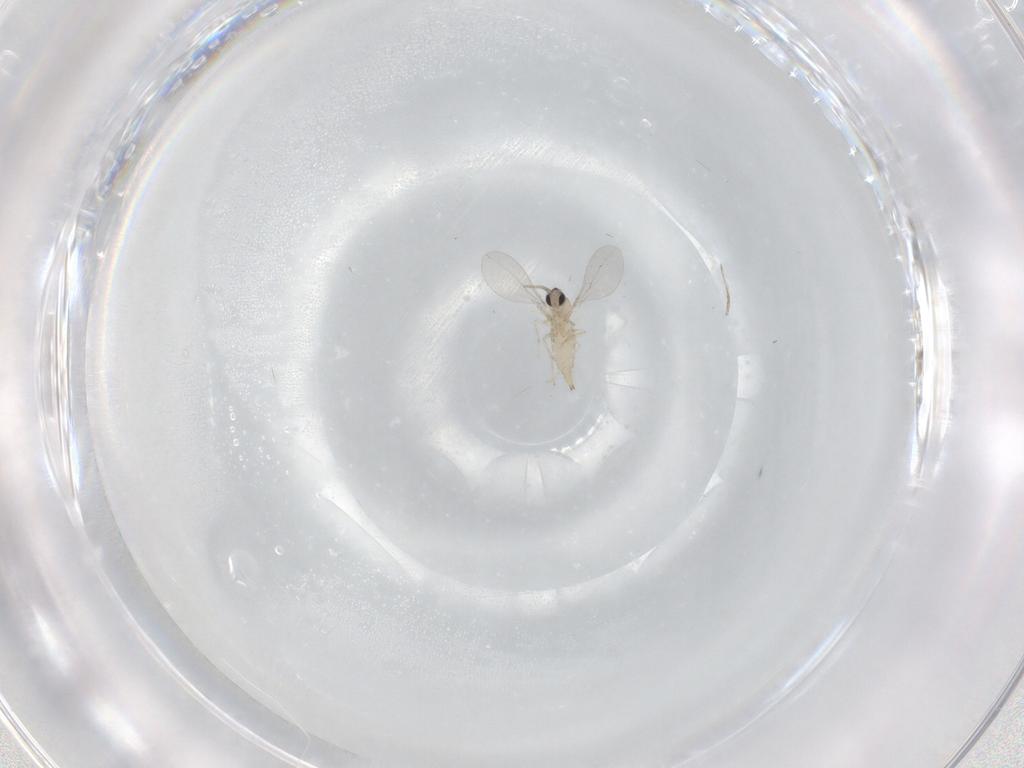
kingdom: Animalia
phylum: Arthropoda
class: Insecta
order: Diptera
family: Cecidomyiidae
